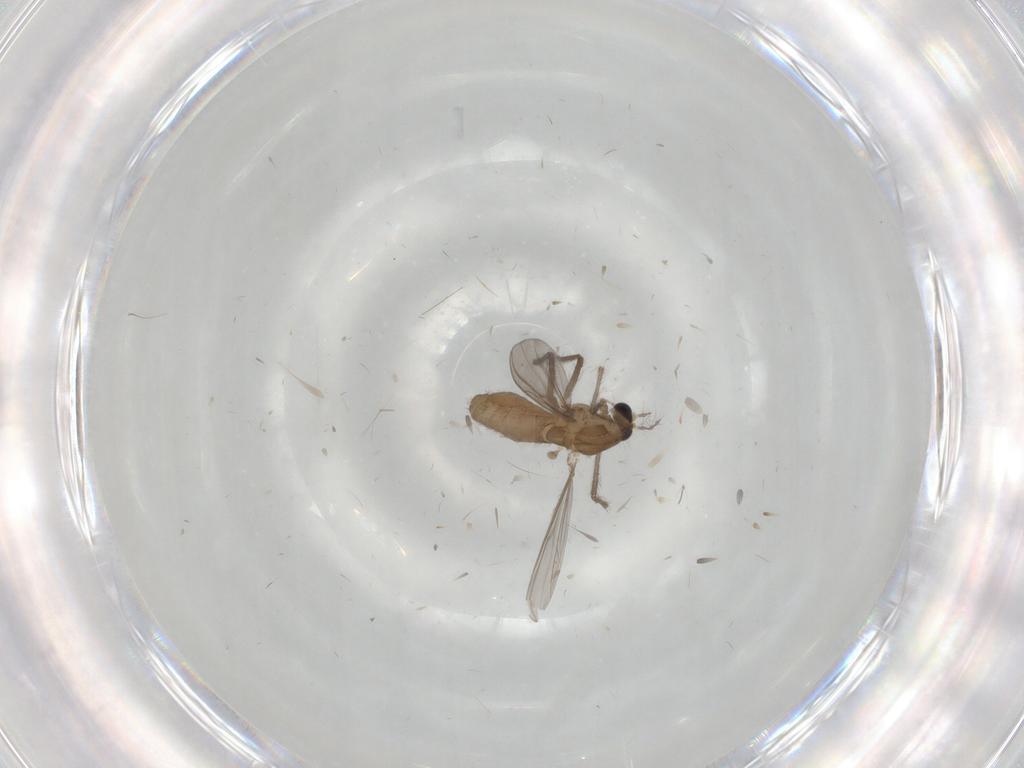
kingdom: Animalia
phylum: Arthropoda
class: Insecta
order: Diptera
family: Chironomidae
